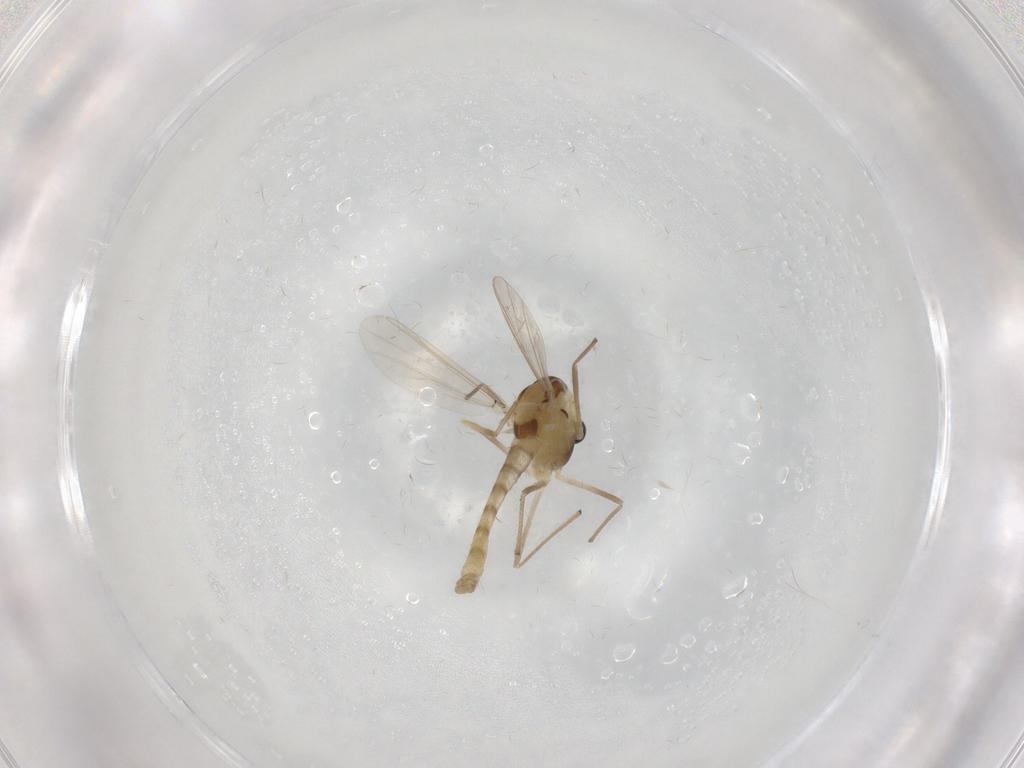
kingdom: Animalia
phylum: Arthropoda
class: Insecta
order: Diptera
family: Chironomidae
